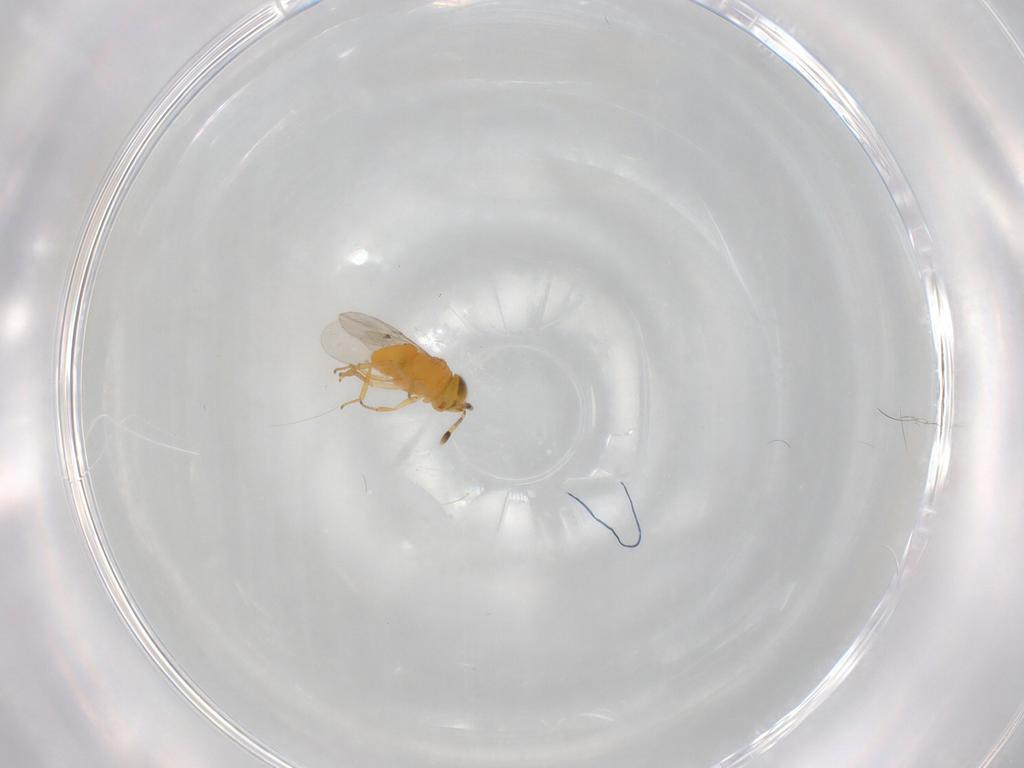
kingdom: Animalia
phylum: Arthropoda
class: Insecta
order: Hymenoptera
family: Encyrtidae
